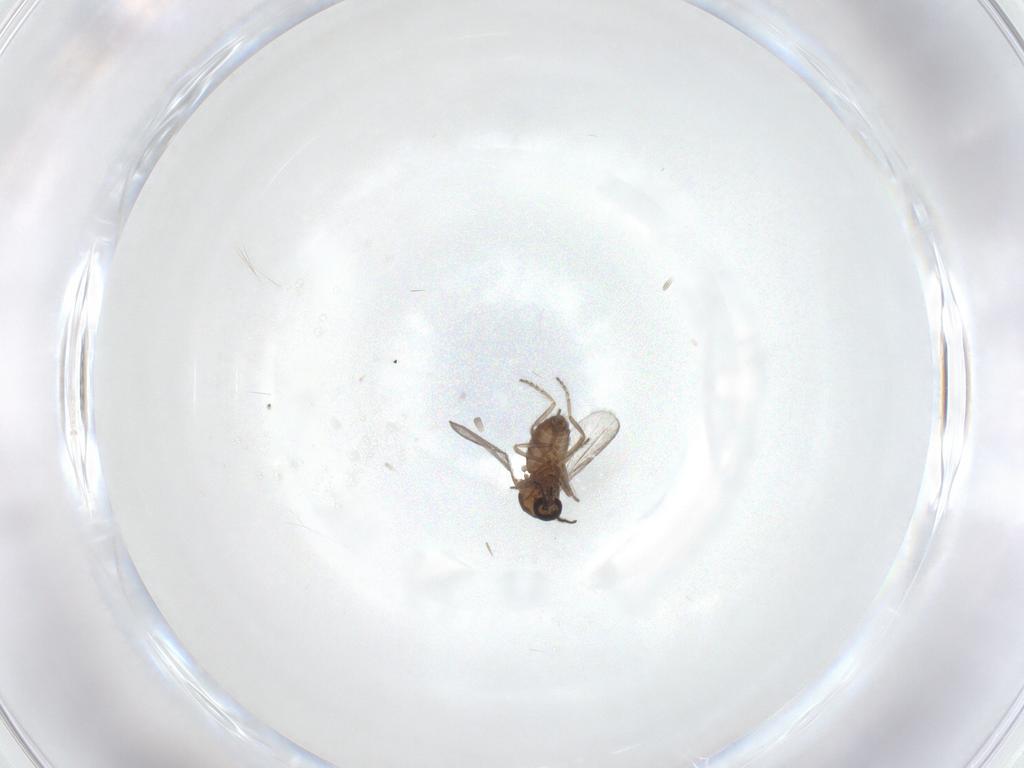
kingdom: Animalia
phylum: Arthropoda
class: Insecta
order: Diptera
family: Ceratopogonidae
